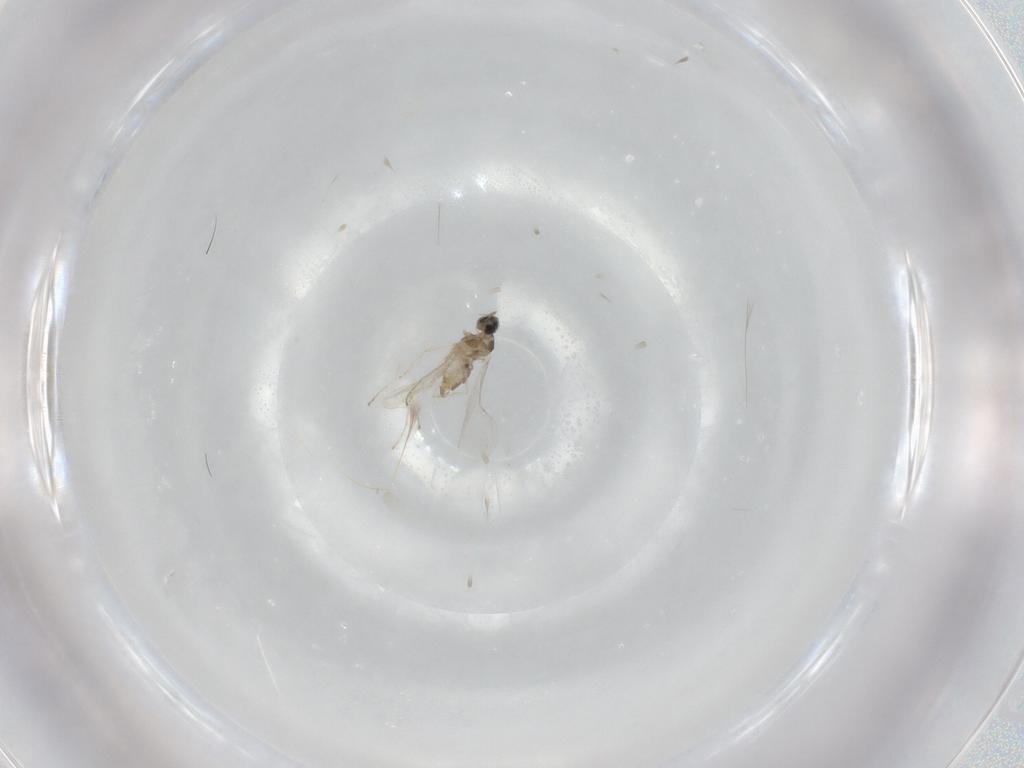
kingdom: Animalia
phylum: Arthropoda
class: Insecta
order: Diptera
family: Cecidomyiidae
